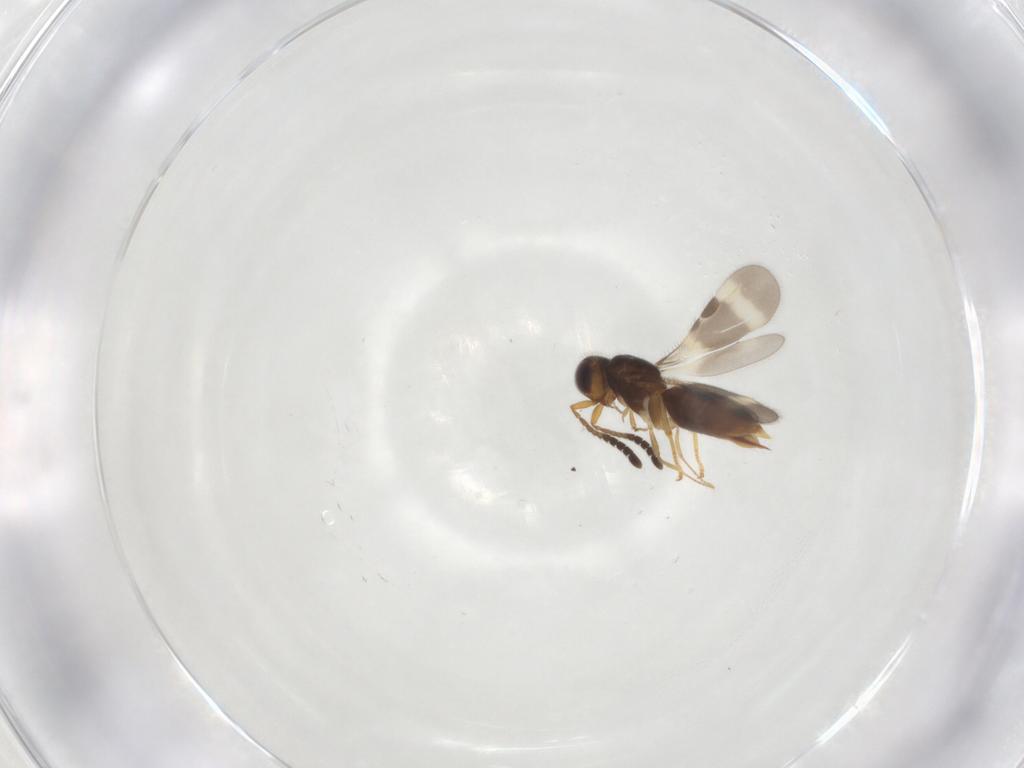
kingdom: Animalia
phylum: Arthropoda
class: Insecta
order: Hemiptera
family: Cicadellidae
